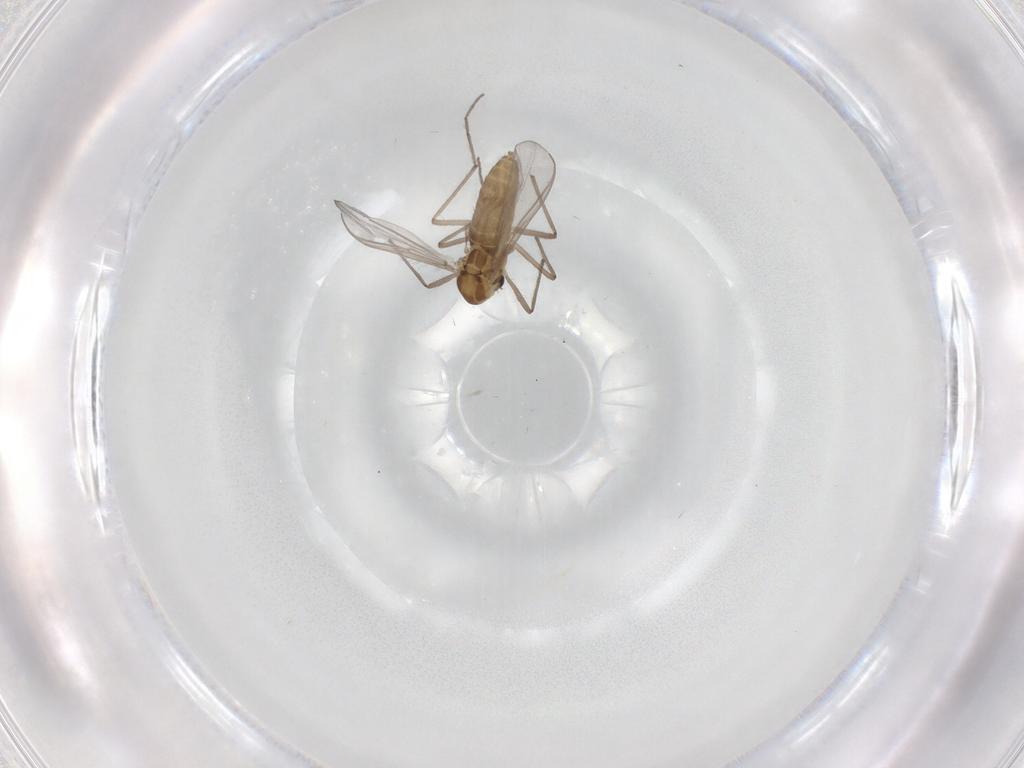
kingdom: Animalia
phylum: Arthropoda
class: Insecta
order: Diptera
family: Chironomidae
